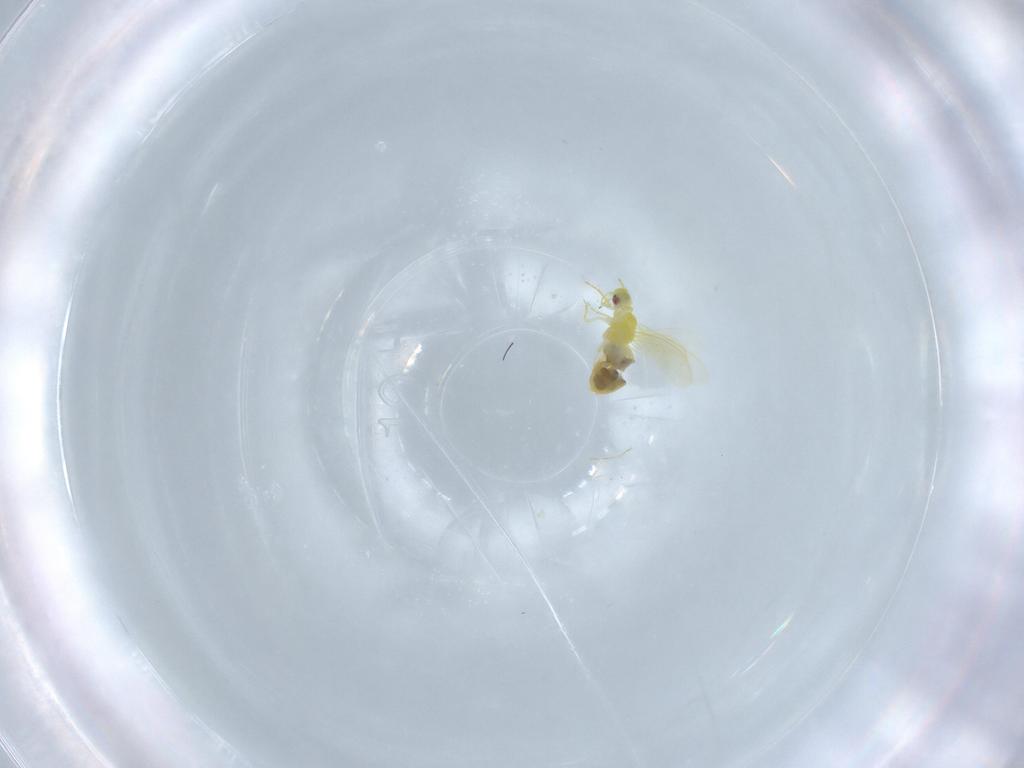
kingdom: Animalia
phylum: Arthropoda
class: Insecta
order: Hemiptera
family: Aleyrodidae
